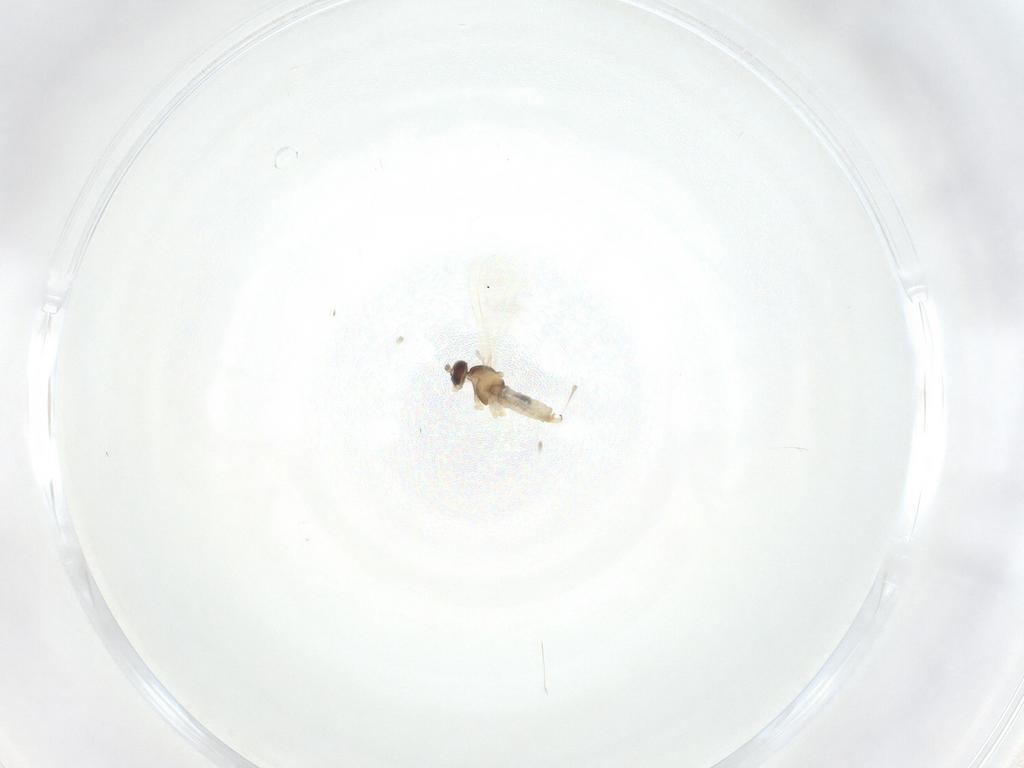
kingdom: Animalia
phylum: Arthropoda
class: Insecta
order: Diptera
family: Cecidomyiidae
